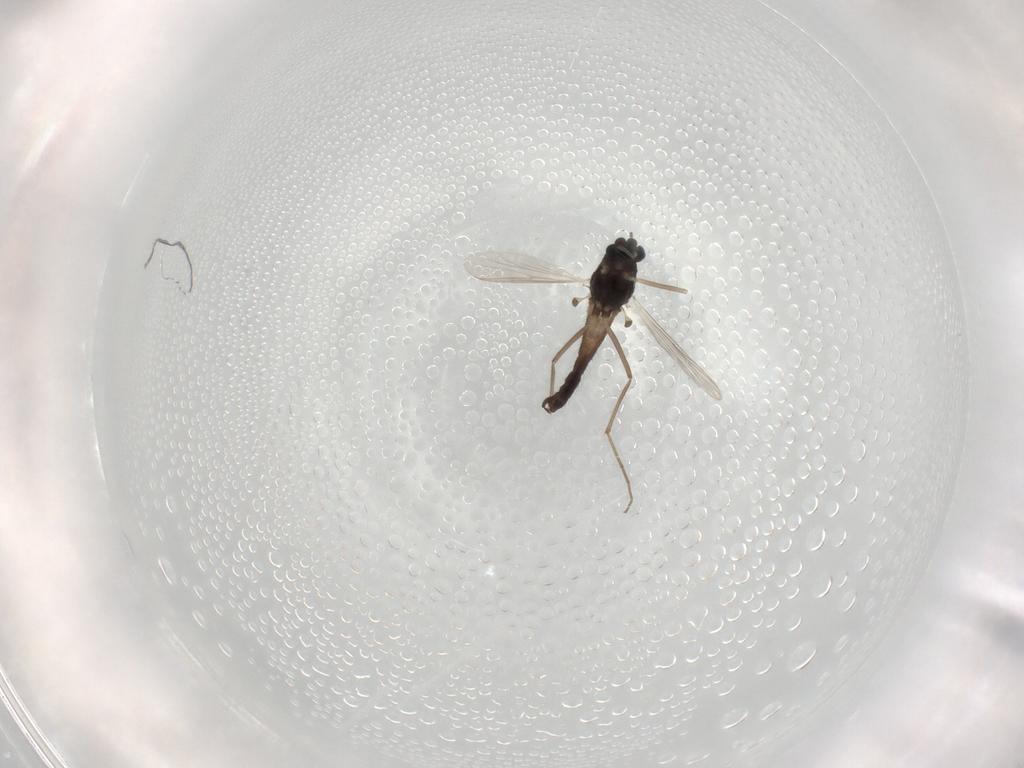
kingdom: Animalia
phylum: Arthropoda
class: Insecta
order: Diptera
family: Chironomidae
